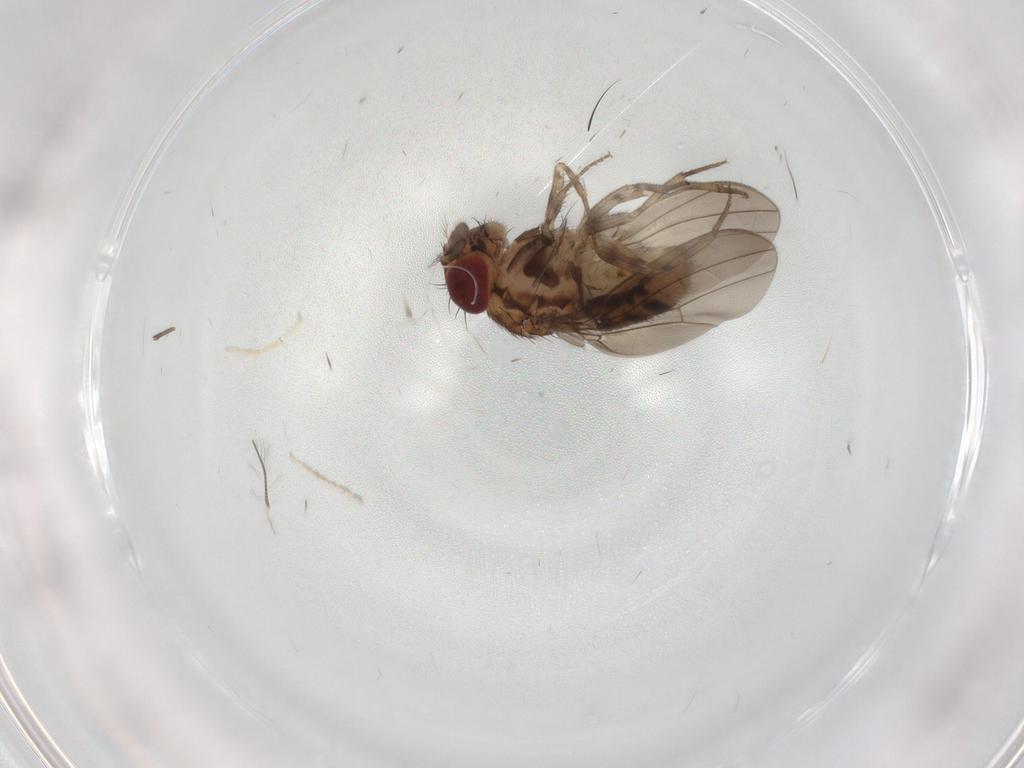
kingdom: Animalia
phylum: Arthropoda
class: Insecta
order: Diptera
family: Drosophilidae
